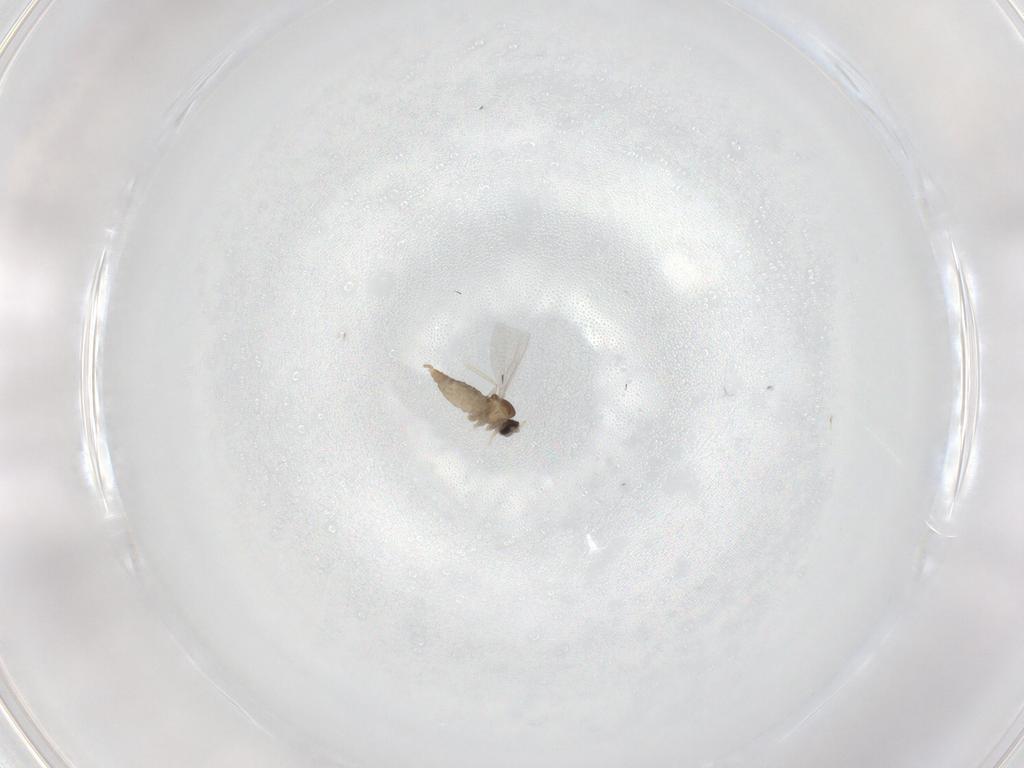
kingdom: Animalia
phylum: Arthropoda
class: Insecta
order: Diptera
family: Cecidomyiidae
